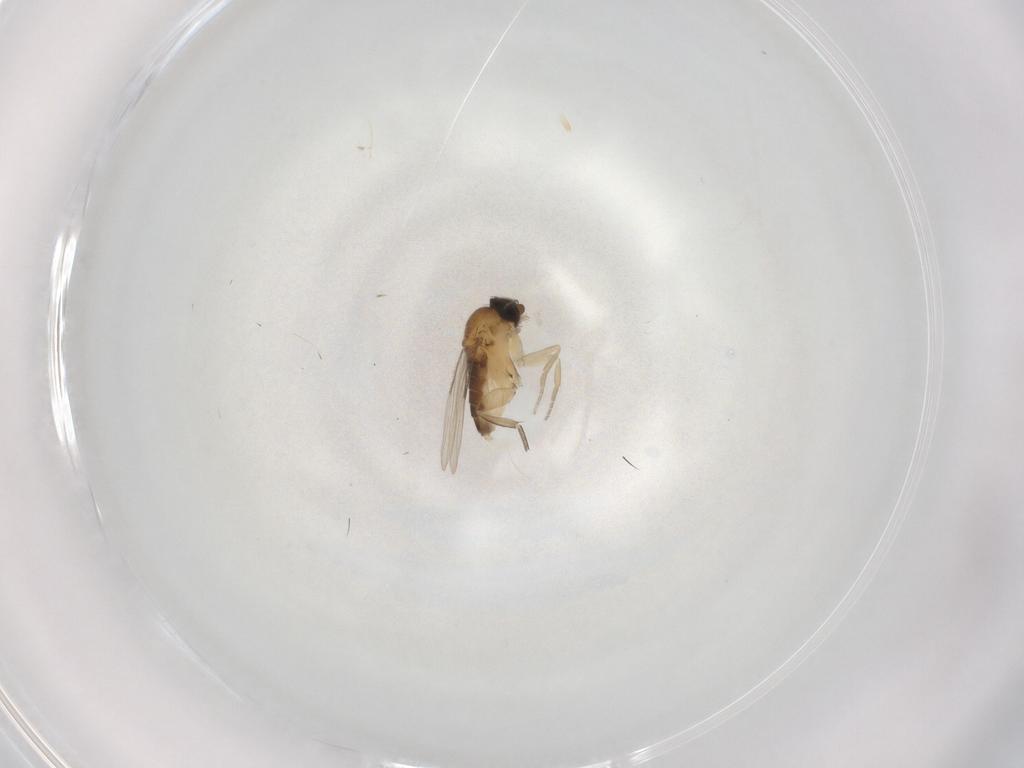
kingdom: Animalia
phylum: Arthropoda
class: Insecta
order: Diptera
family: Phoridae
